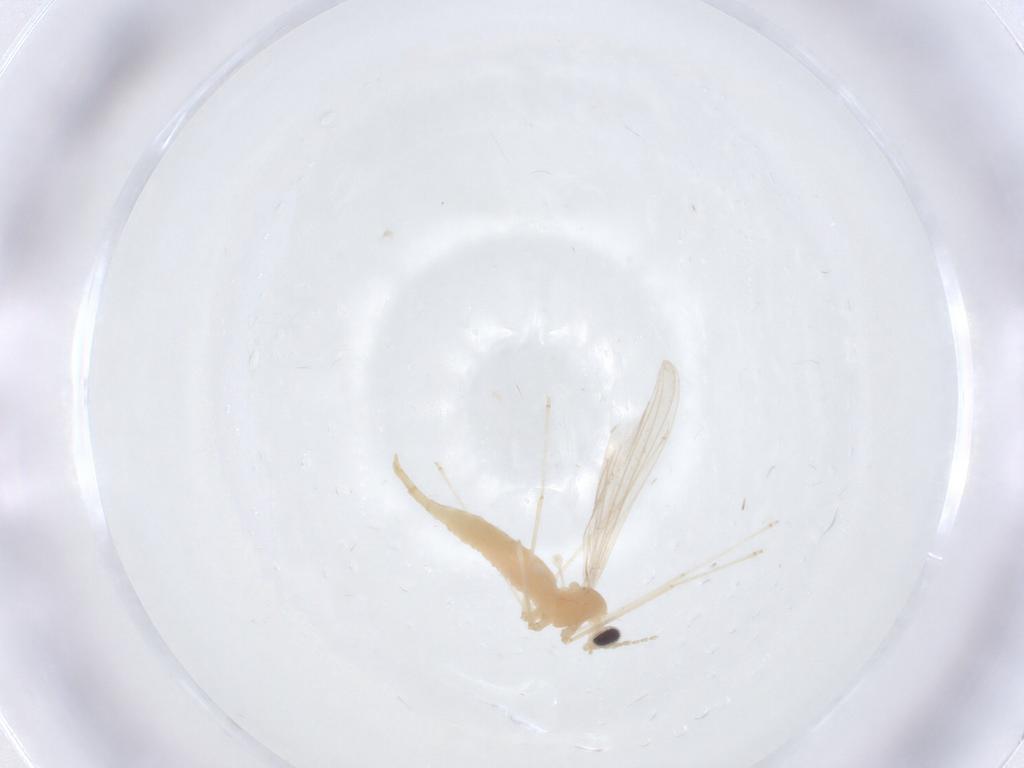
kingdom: Animalia
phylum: Arthropoda
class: Insecta
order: Diptera
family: Cecidomyiidae
